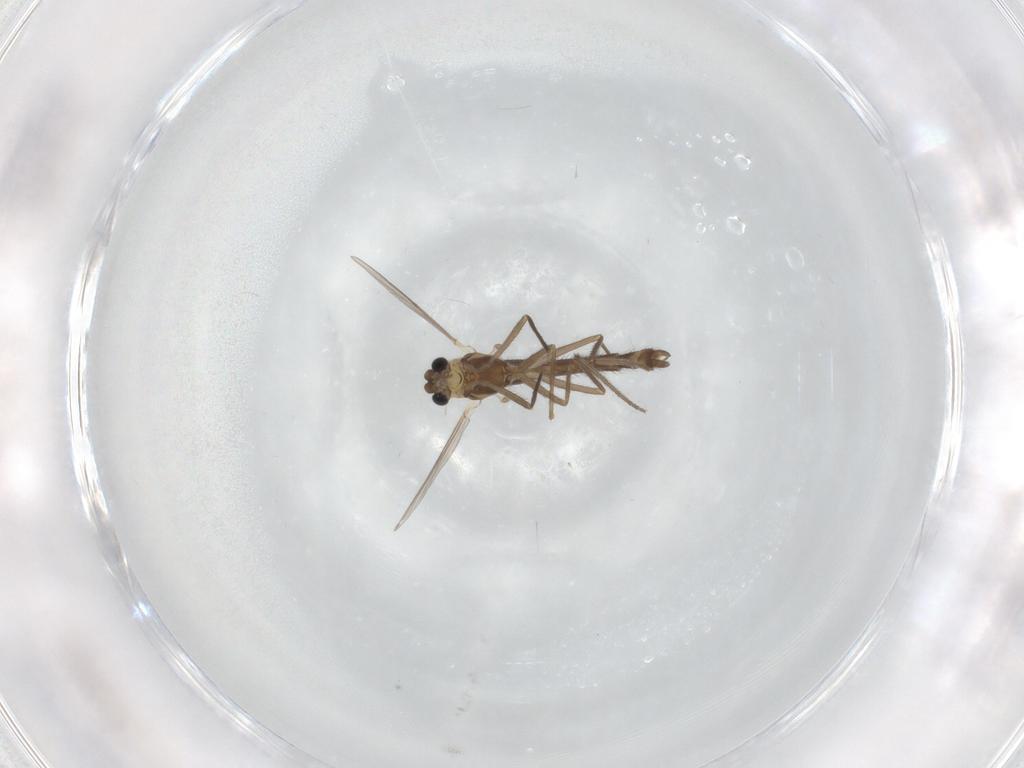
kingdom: Animalia
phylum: Arthropoda
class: Insecta
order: Diptera
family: Chironomidae
